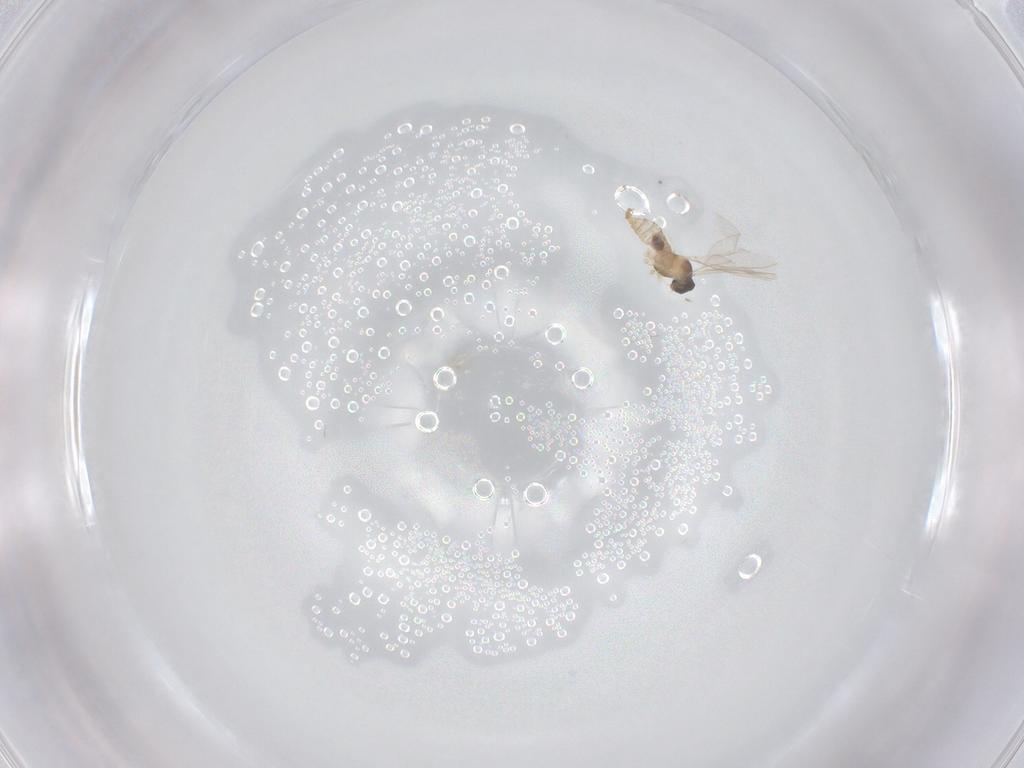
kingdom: Animalia
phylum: Arthropoda
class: Insecta
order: Diptera
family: Cecidomyiidae
